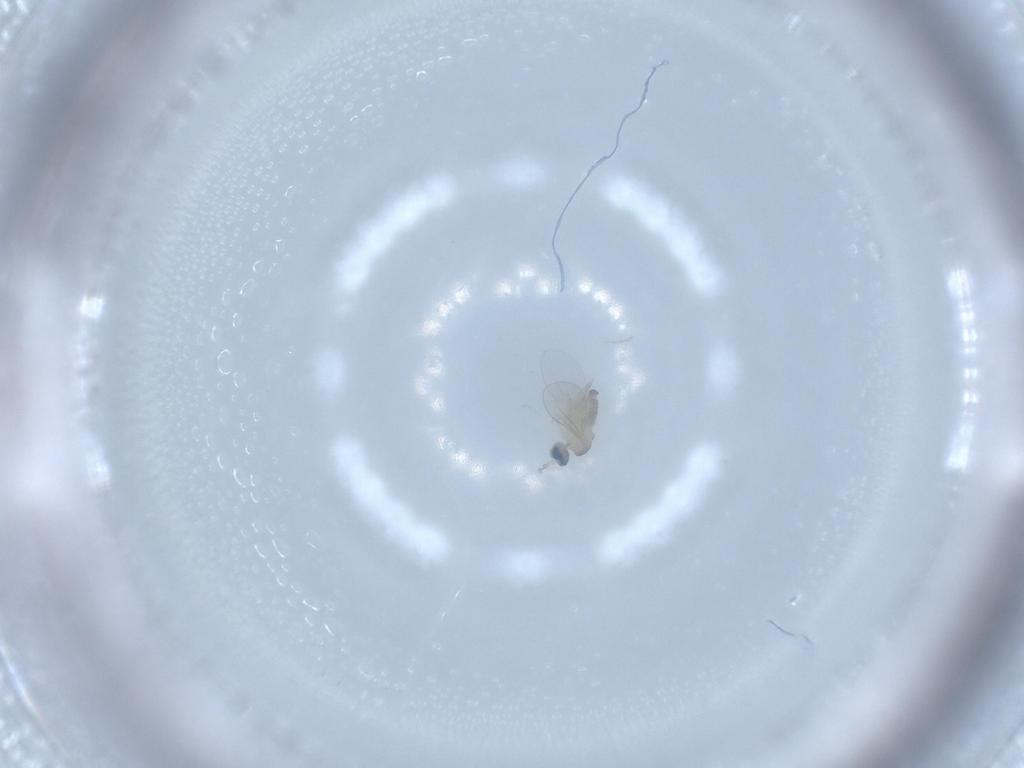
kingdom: Animalia
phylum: Arthropoda
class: Insecta
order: Diptera
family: Cecidomyiidae
